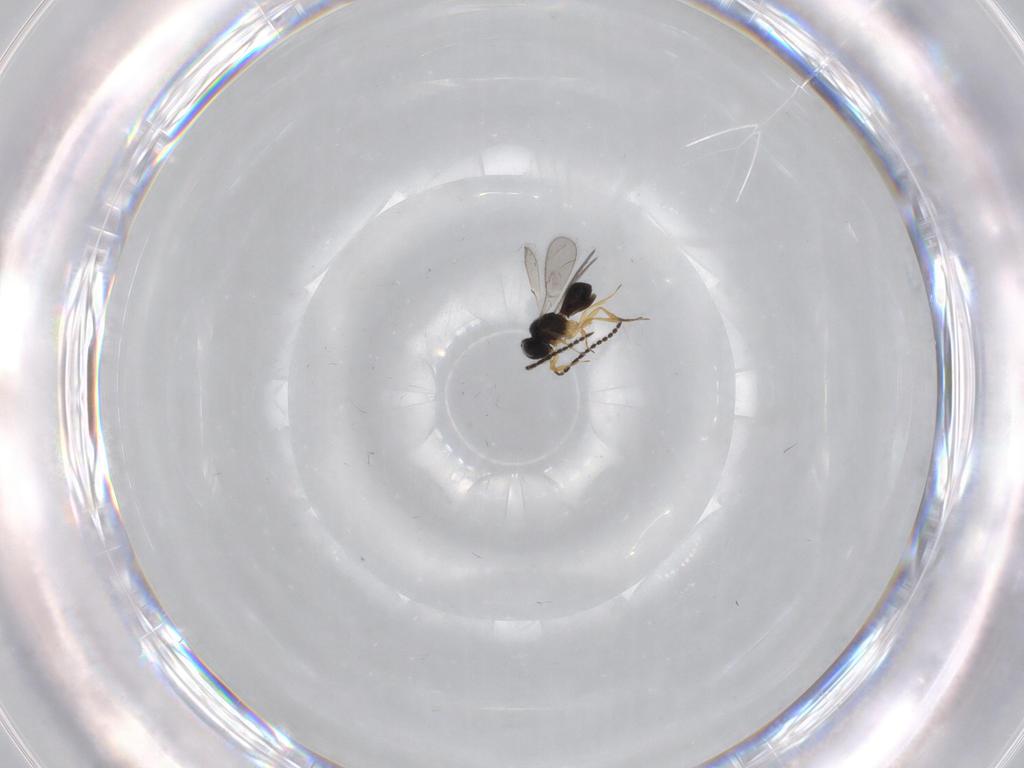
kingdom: Animalia
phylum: Arthropoda
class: Insecta
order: Hymenoptera
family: Scelionidae
